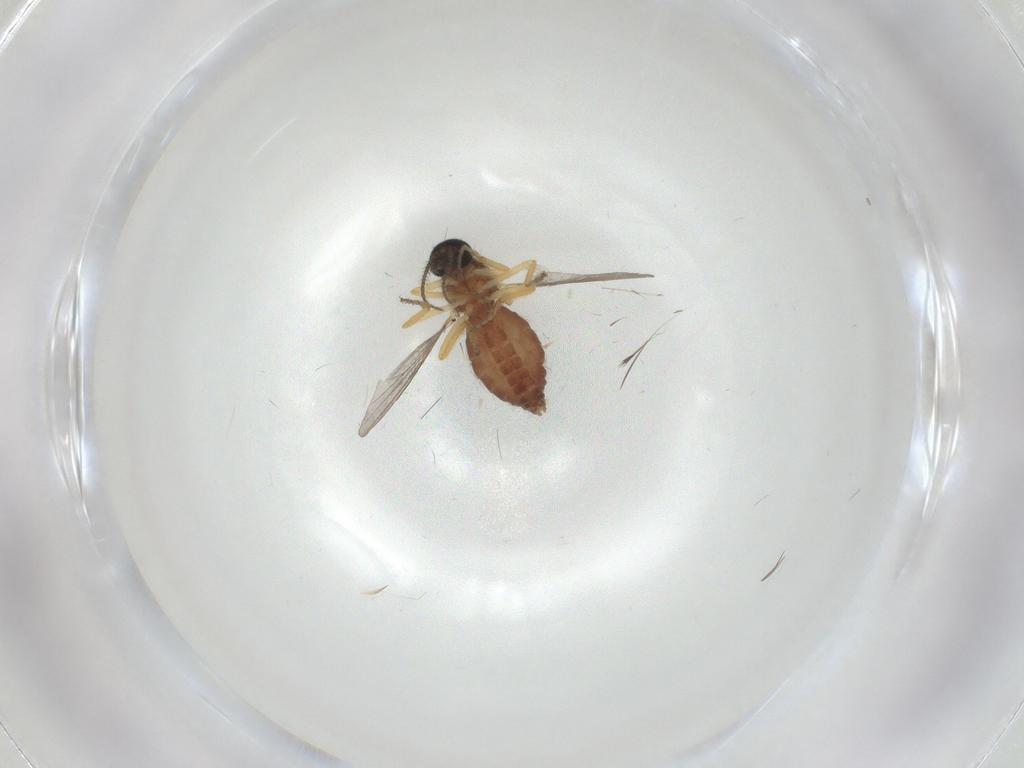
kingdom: Animalia
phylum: Arthropoda
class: Insecta
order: Diptera
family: Ceratopogonidae
